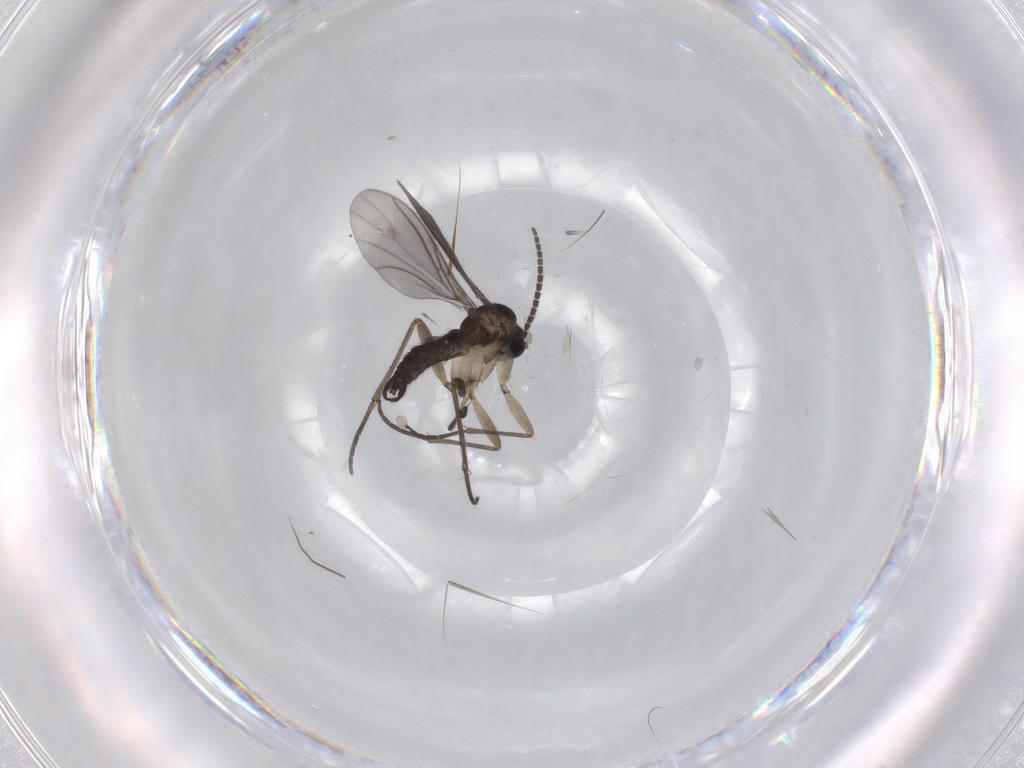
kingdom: Animalia
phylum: Arthropoda
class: Insecta
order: Diptera
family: Sciaridae
